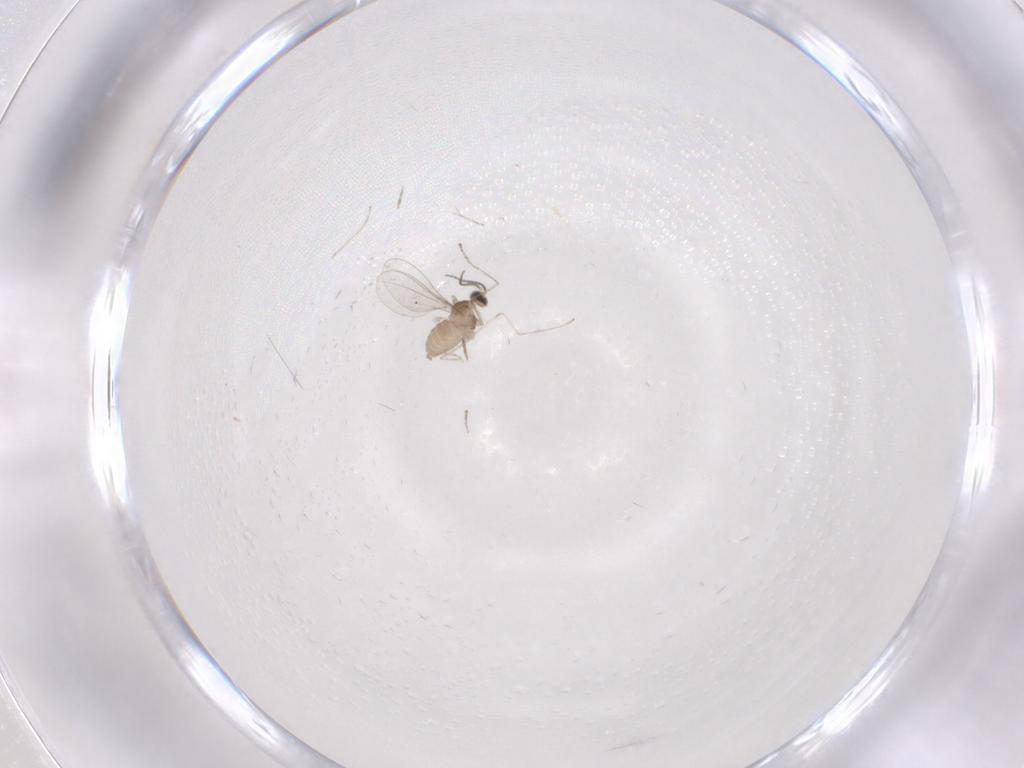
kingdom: Animalia
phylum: Arthropoda
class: Insecta
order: Diptera
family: Cecidomyiidae
